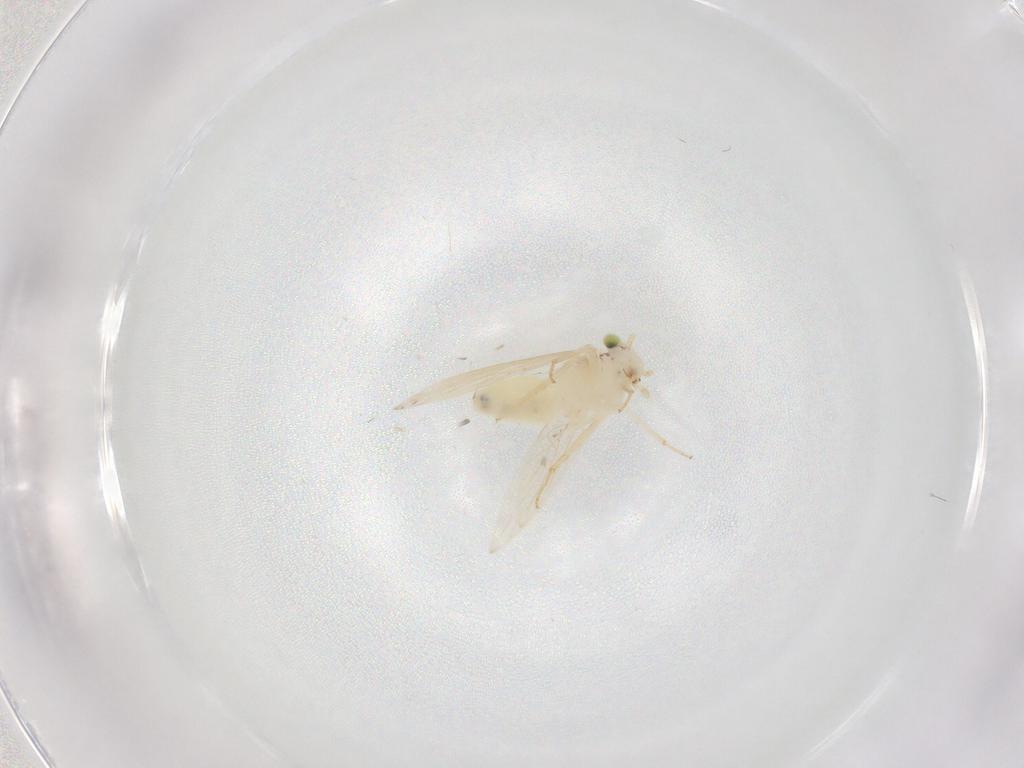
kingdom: Animalia
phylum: Arthropoda
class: Insecta
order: Psocodea
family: Lepidopsocidae
